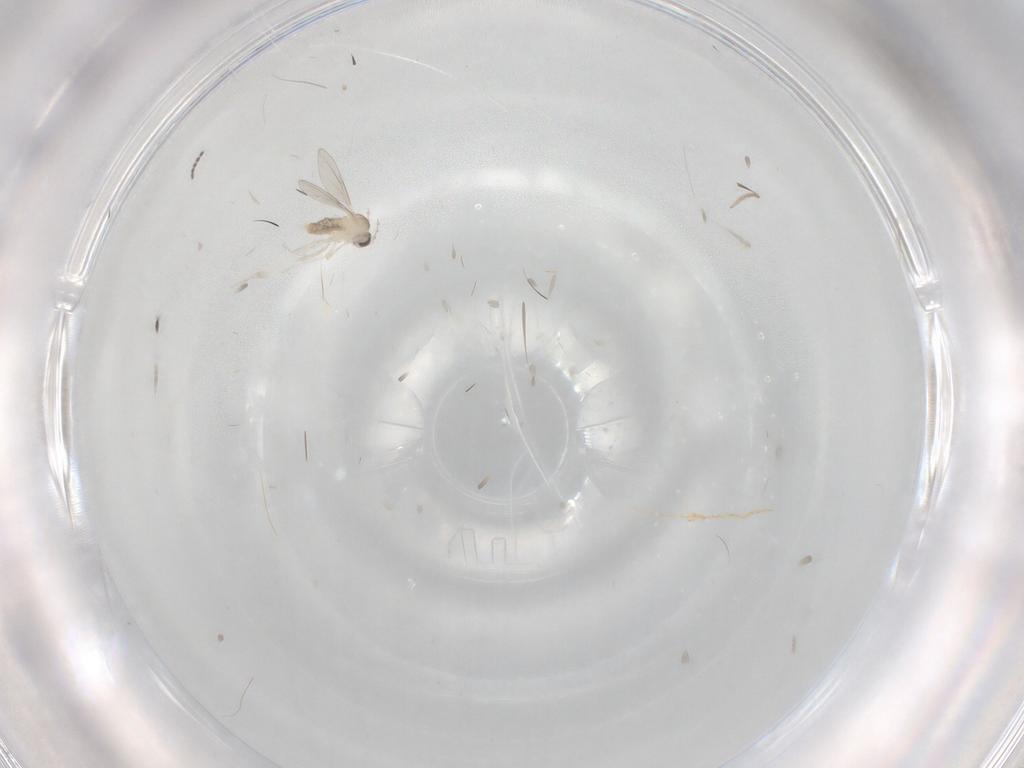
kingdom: Animalia
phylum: Arthropoda
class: Insecta
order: Diptera
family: Cecidomyiidae
